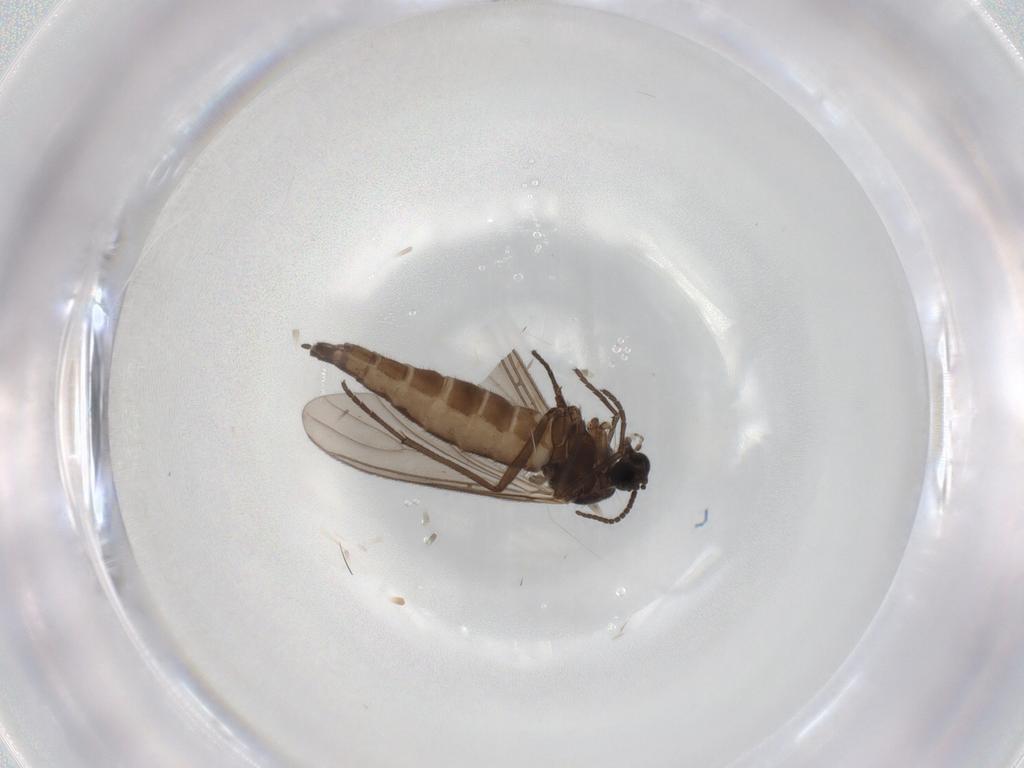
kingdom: Animalia
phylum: Arthropoda
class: Insecta
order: Diptera
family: Sciaridae
